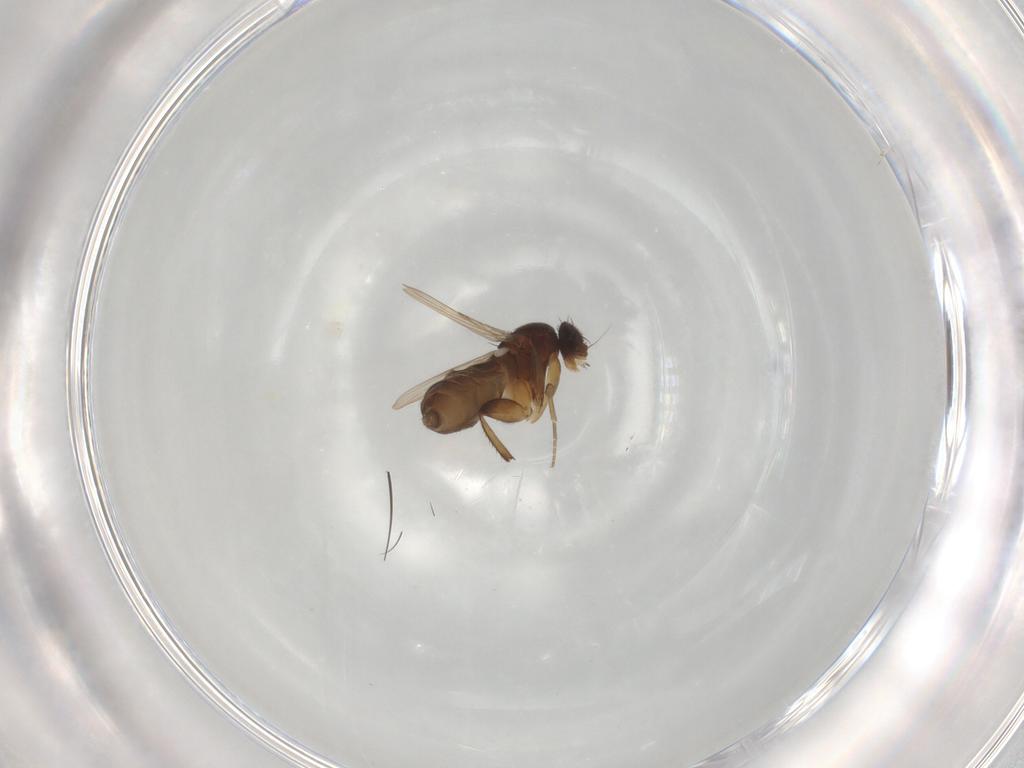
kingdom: Animalia
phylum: Arthropoda
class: Insecta
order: Diptera
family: Phoridae
